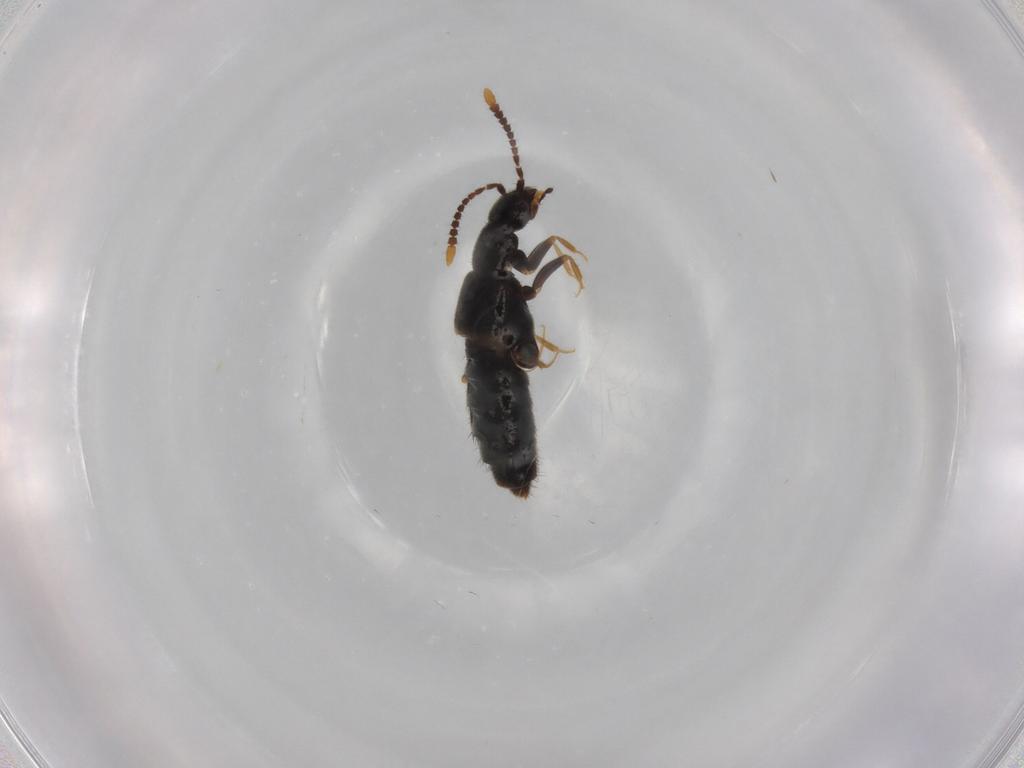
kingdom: Animalia
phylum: Arthropoda
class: Insecta
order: Coleoptera
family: Staphylinidae
